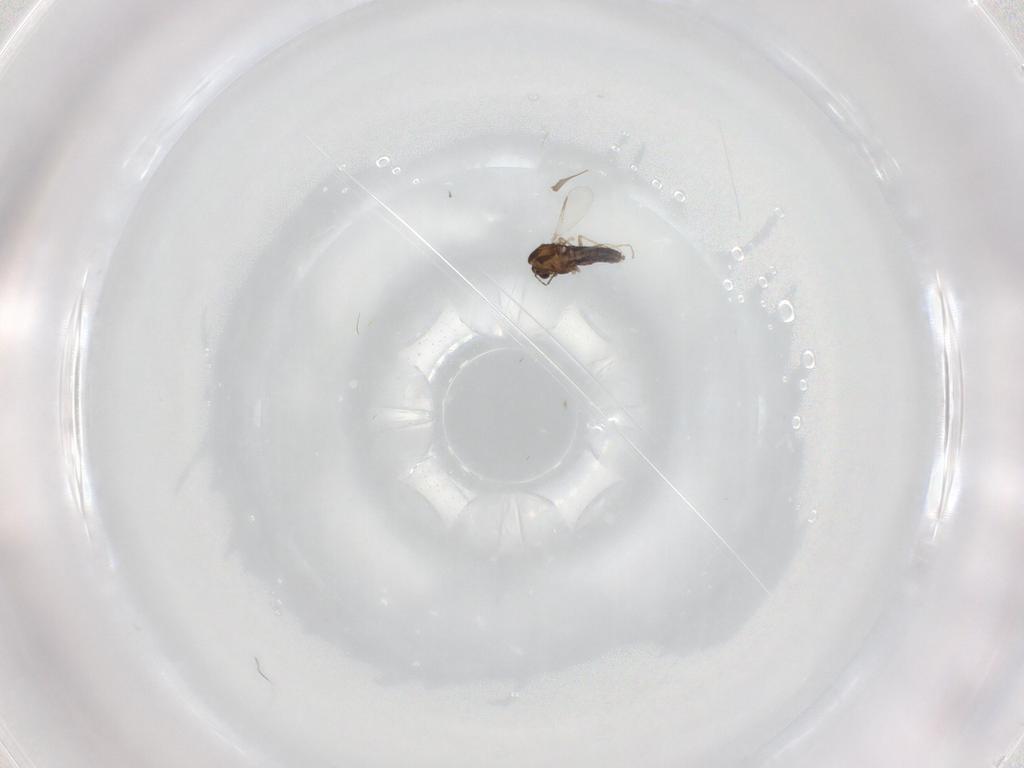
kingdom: Animalia
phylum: Arthropoda
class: Insecta
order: Diptera
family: Chironomidae
